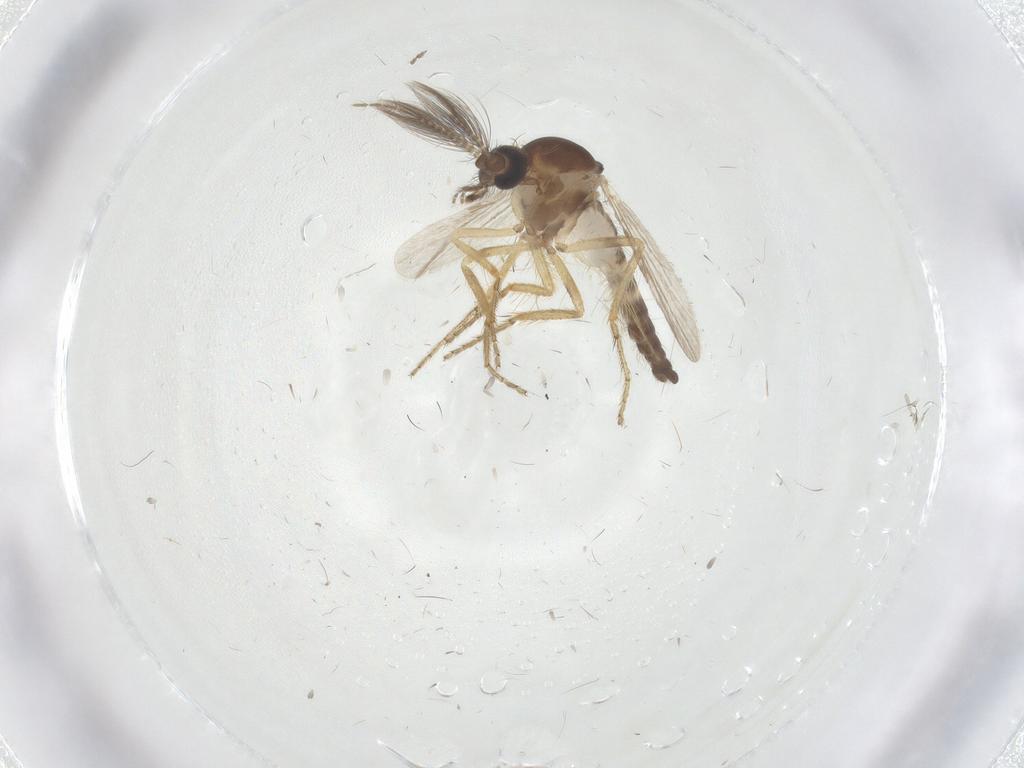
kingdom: Animalia
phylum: Arthropoda
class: Insecta
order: Diptera
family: Ceratopogonidae
